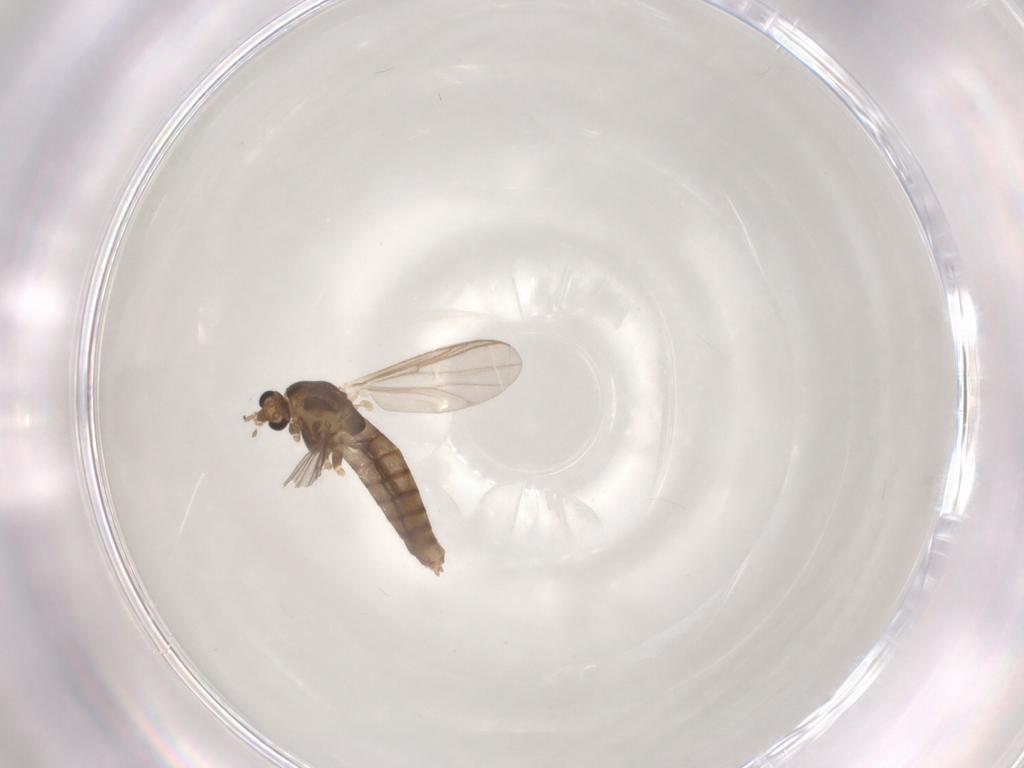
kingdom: Animalia
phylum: Arthropoda
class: Insecta
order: Diptera
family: Chironomidae
